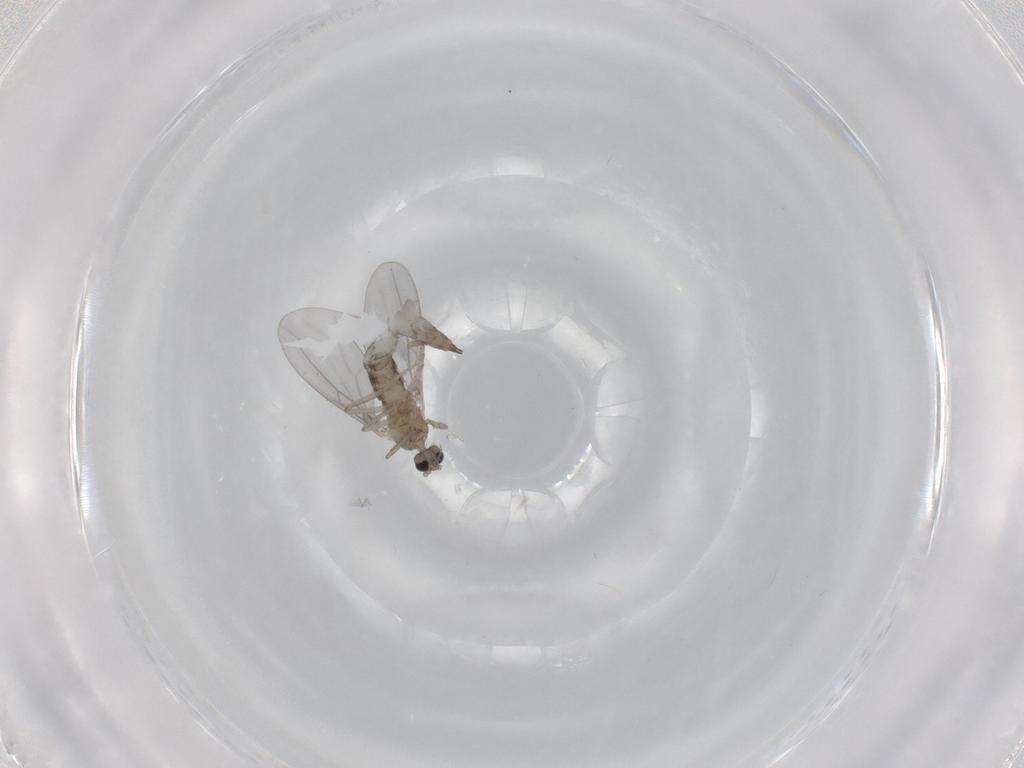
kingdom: Animalia
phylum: Arthropoda
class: Insecta
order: Diptera
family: Cecidomyiidae
